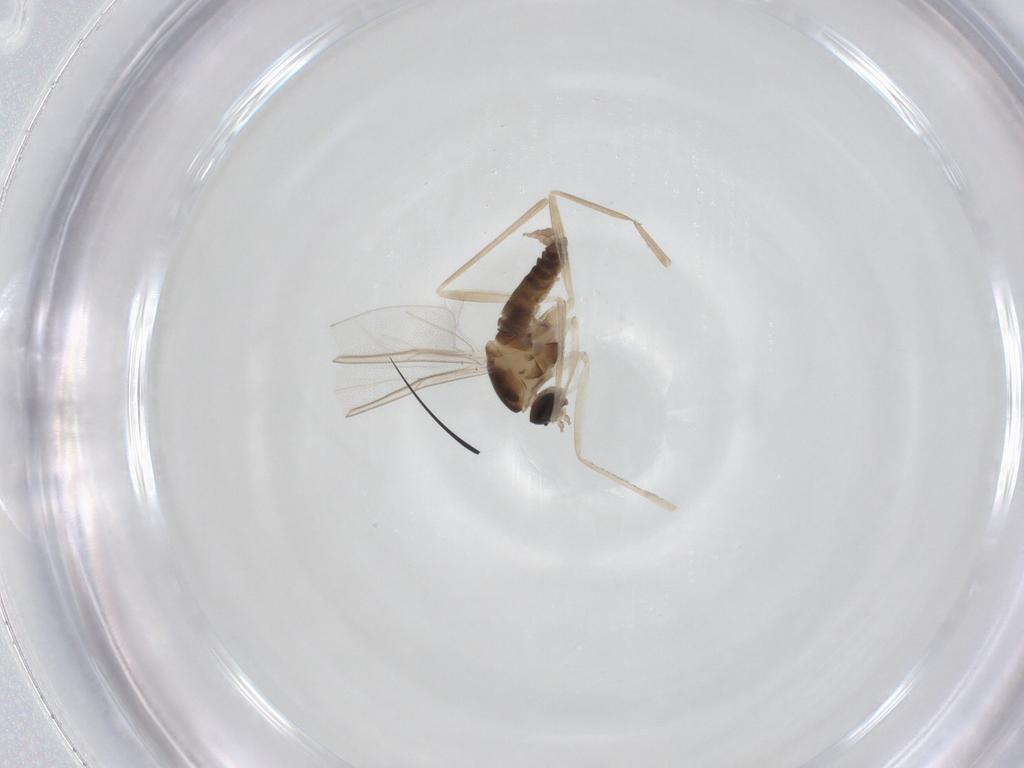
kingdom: Animalia
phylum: Arthropoda
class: Insecta
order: Diptera
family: Cecidomyiidae
